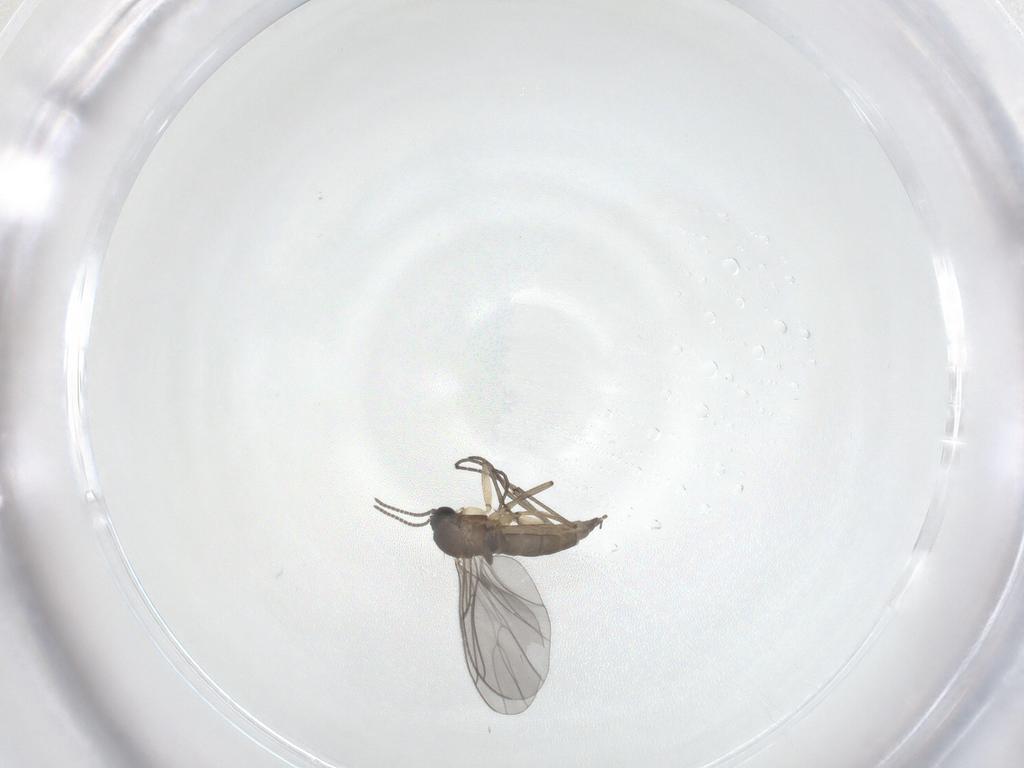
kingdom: Animalia
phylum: Arthropoda
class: Insecta
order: Diptera
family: Sciaridae
